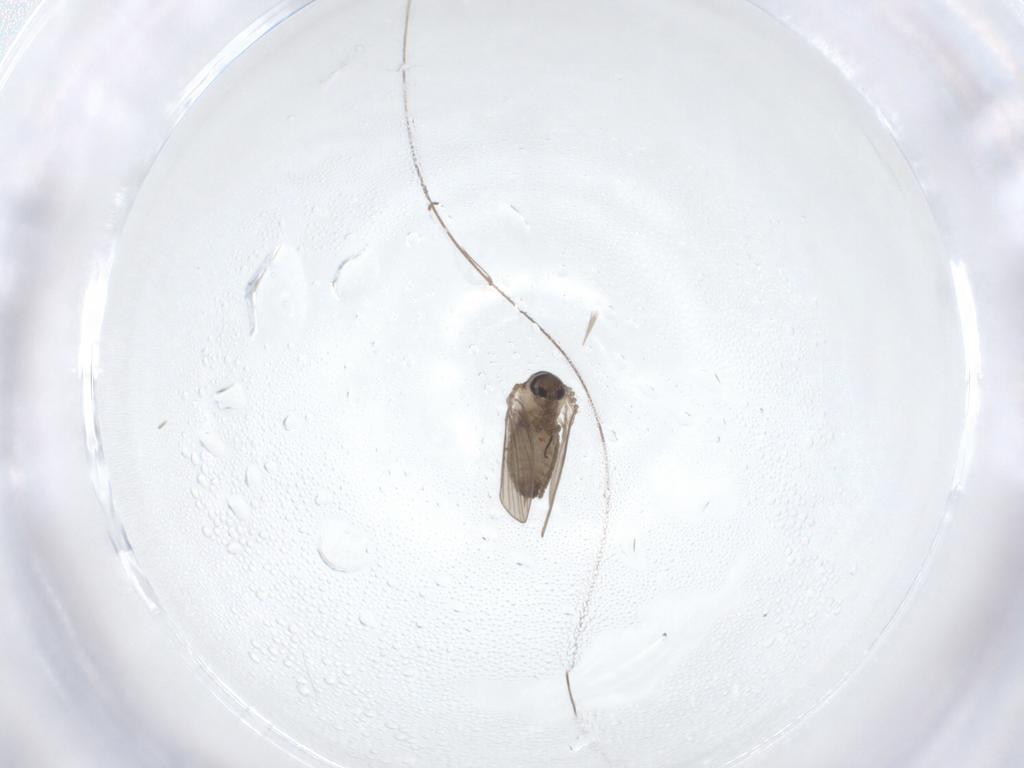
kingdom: Animalia
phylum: Arthropoda
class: Insecta
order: Diptera
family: Psychodidae
